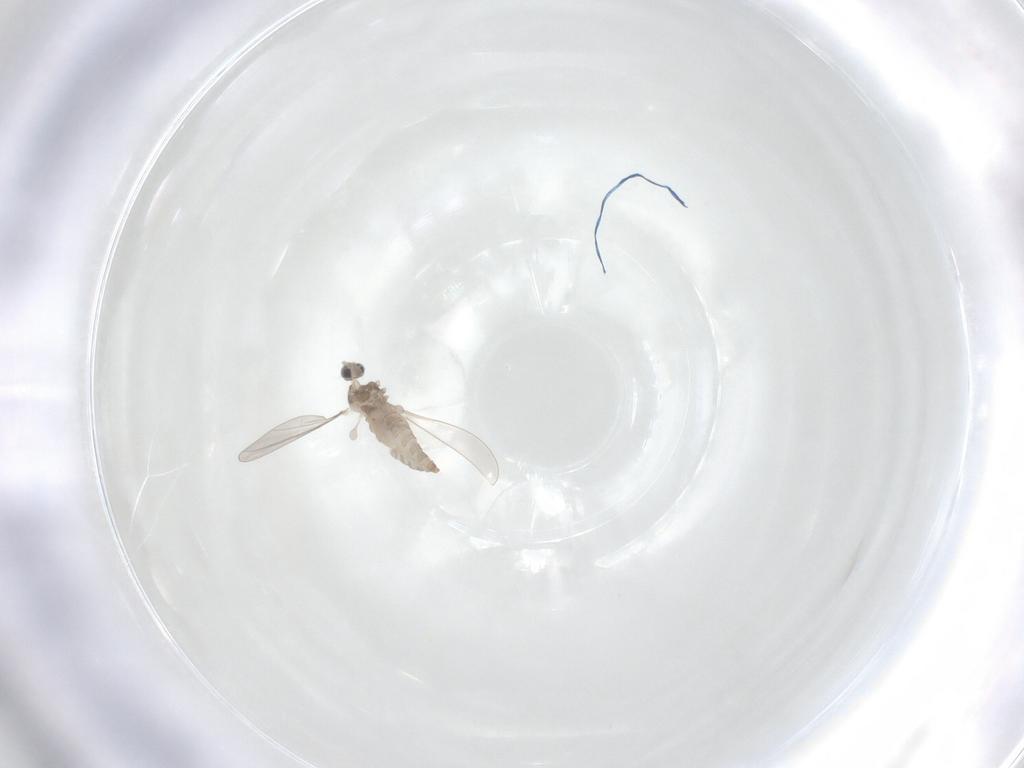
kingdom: Animalia
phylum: Arthropoda
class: Insecta
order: Diptera
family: Cecidomyiidae
